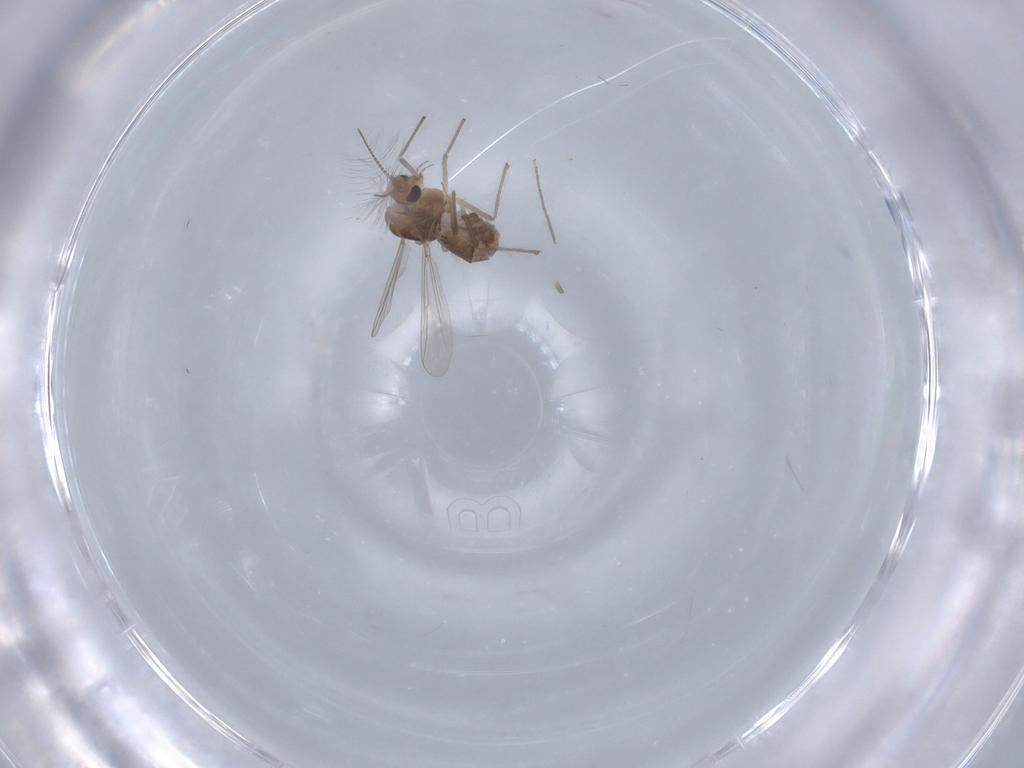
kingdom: Animalia
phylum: Arthropoda
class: Insecta
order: Diptera
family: Chironomidae
